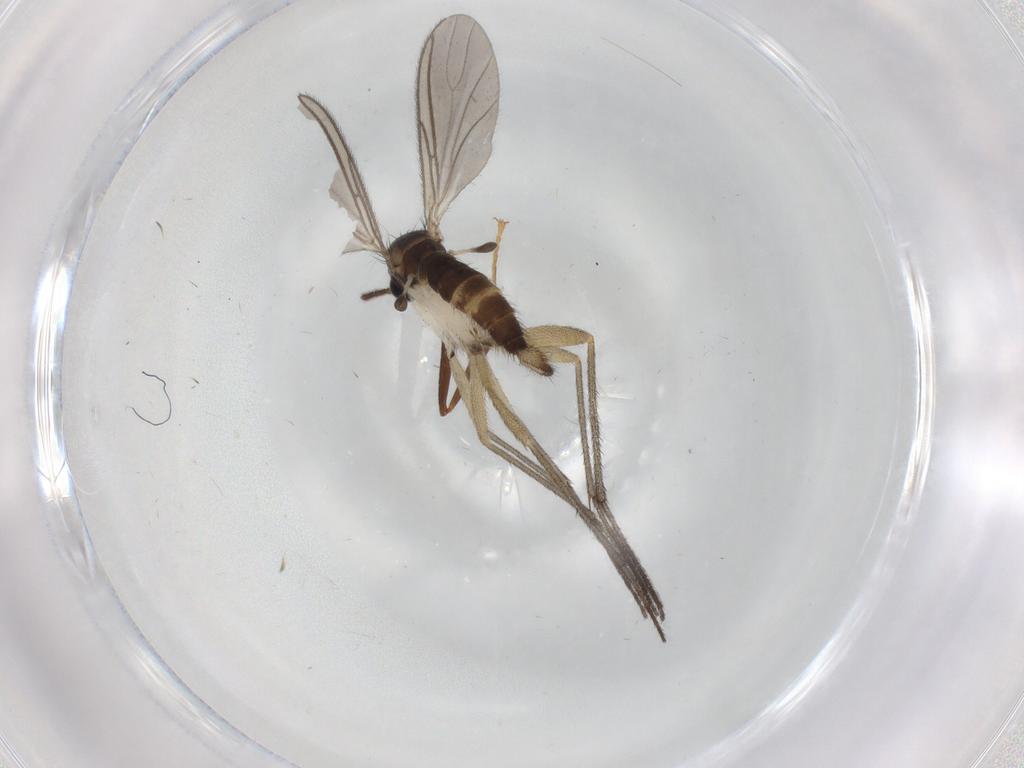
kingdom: Animalia
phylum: Arthropoda
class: Insecta
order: Diptera
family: Sciaridae
